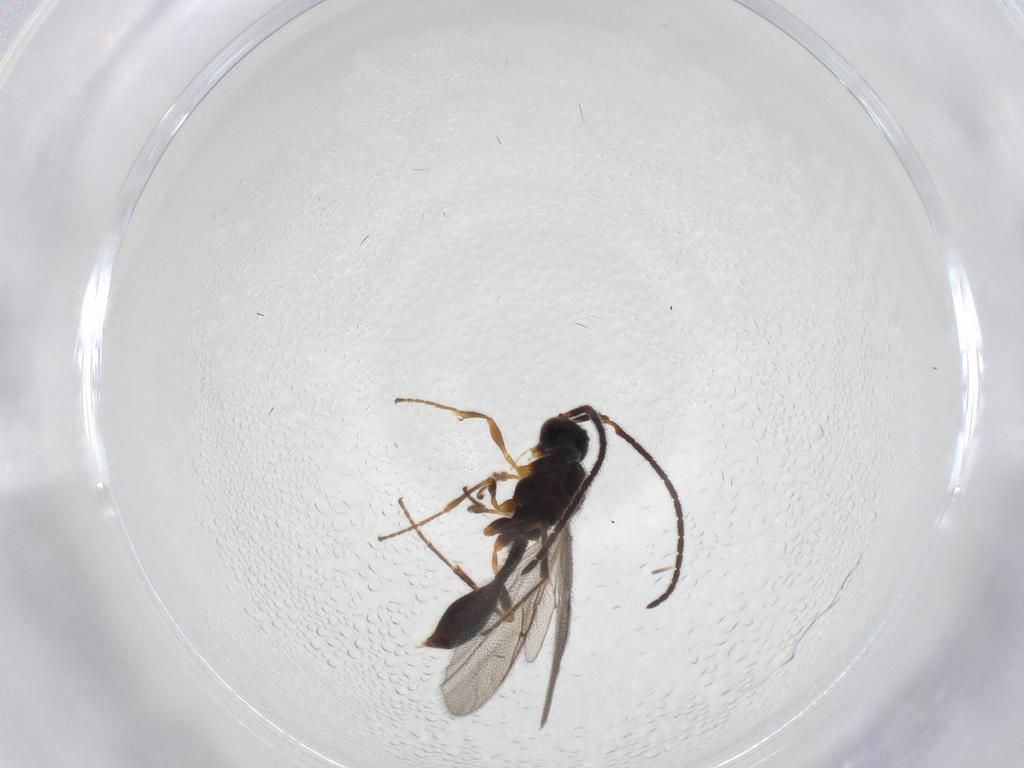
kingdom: Animalia
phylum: Arthropoda
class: Insecta
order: Hymenoptera
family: Diapriidae
